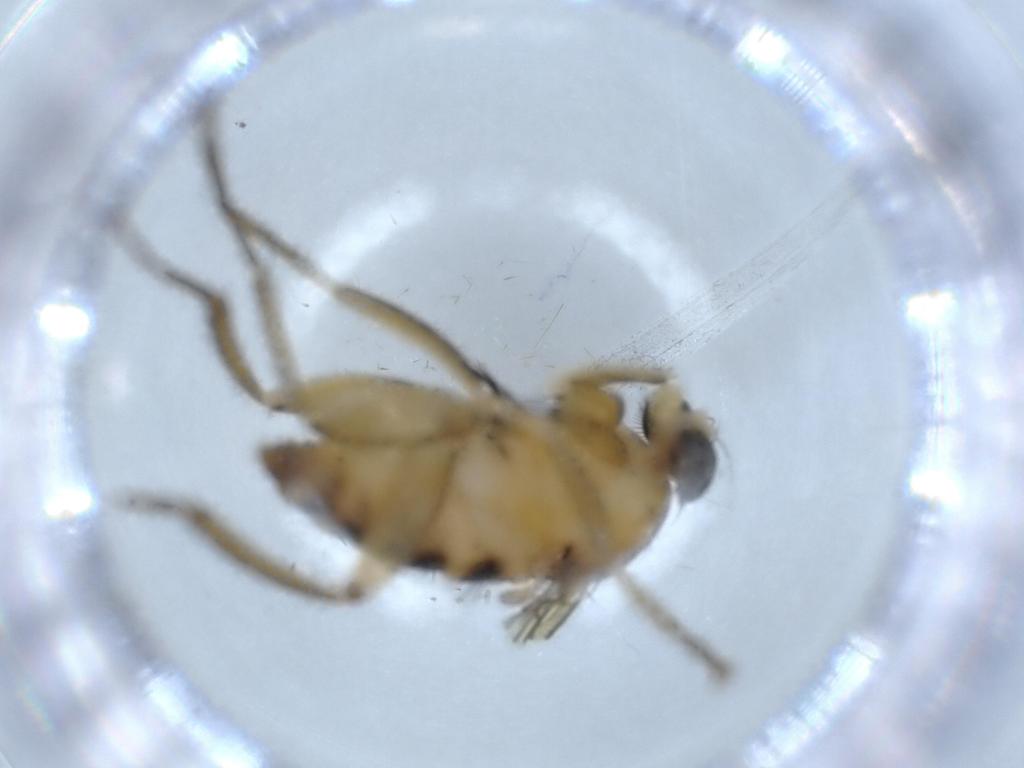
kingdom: Animalia
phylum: Arthropoda
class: Insecta
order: Diptera
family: Phoridae
